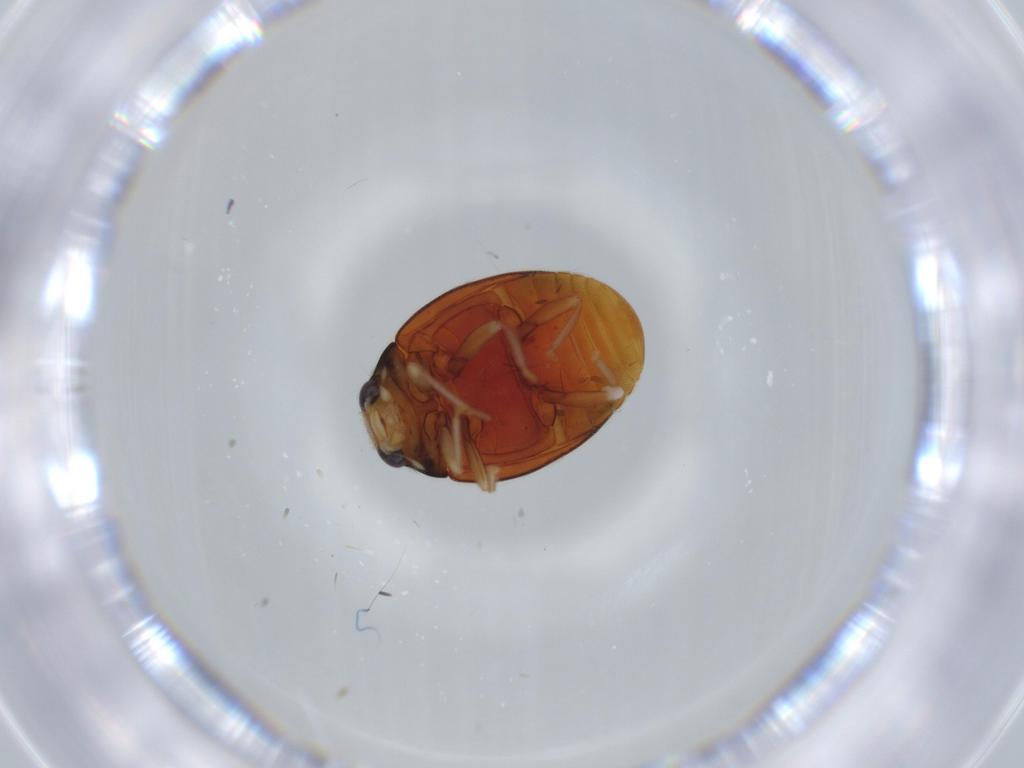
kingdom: Animalia
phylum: Arthropoda
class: Insecta
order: Coleoptera
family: Coccinellidae
